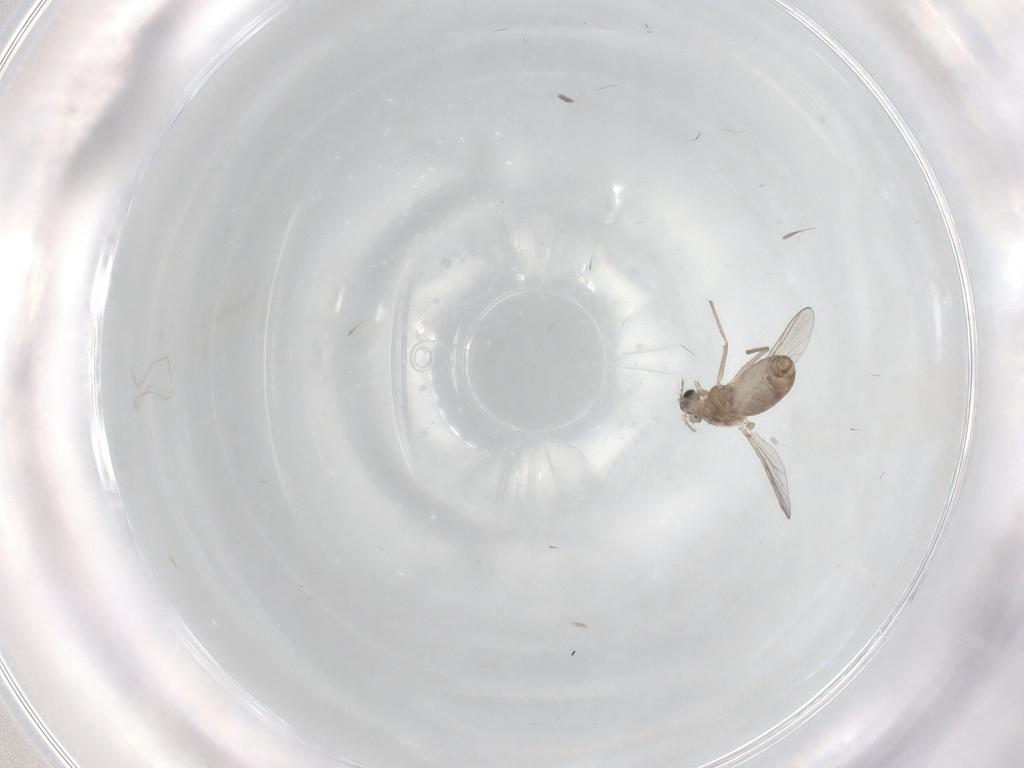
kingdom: Animalia
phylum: Arthropoda
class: Insecta
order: Diptera
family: Chironomidae
